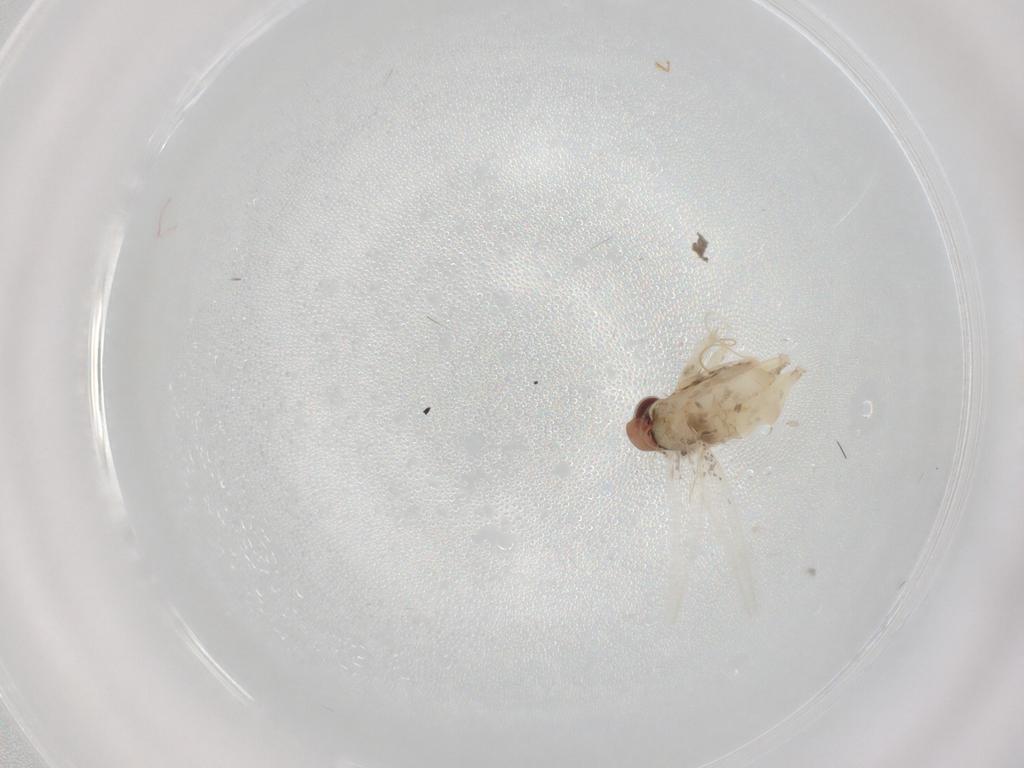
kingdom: Animalia
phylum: Arthropoda
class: Insecta
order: Lepidoptera
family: Gracillariidae
